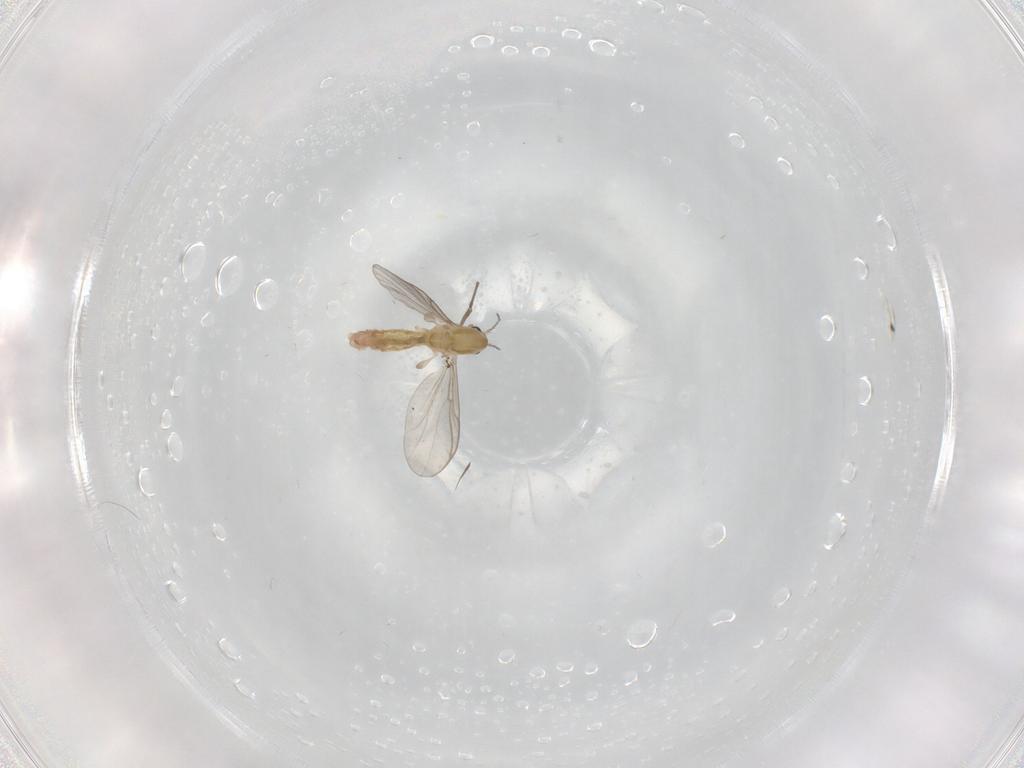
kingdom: Animalia
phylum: Arthropoda
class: Insecta
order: Diptera
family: Chironomidae
